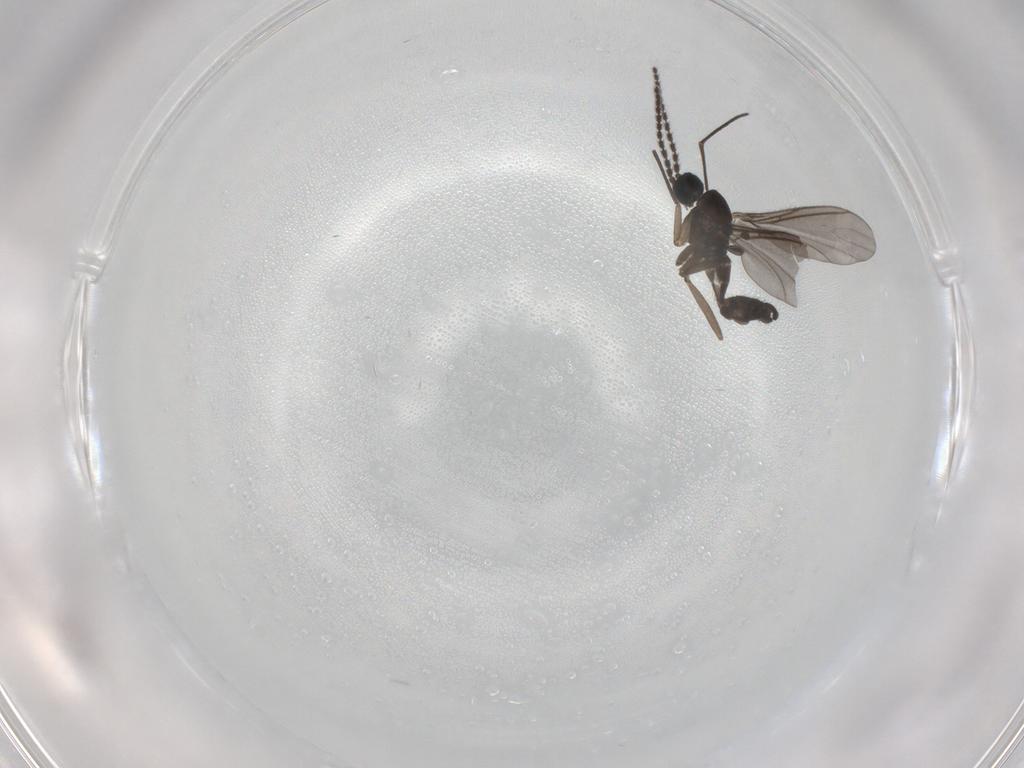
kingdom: Animalia
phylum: Arthropoda
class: Insecta
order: Diptera
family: Sciaridae
